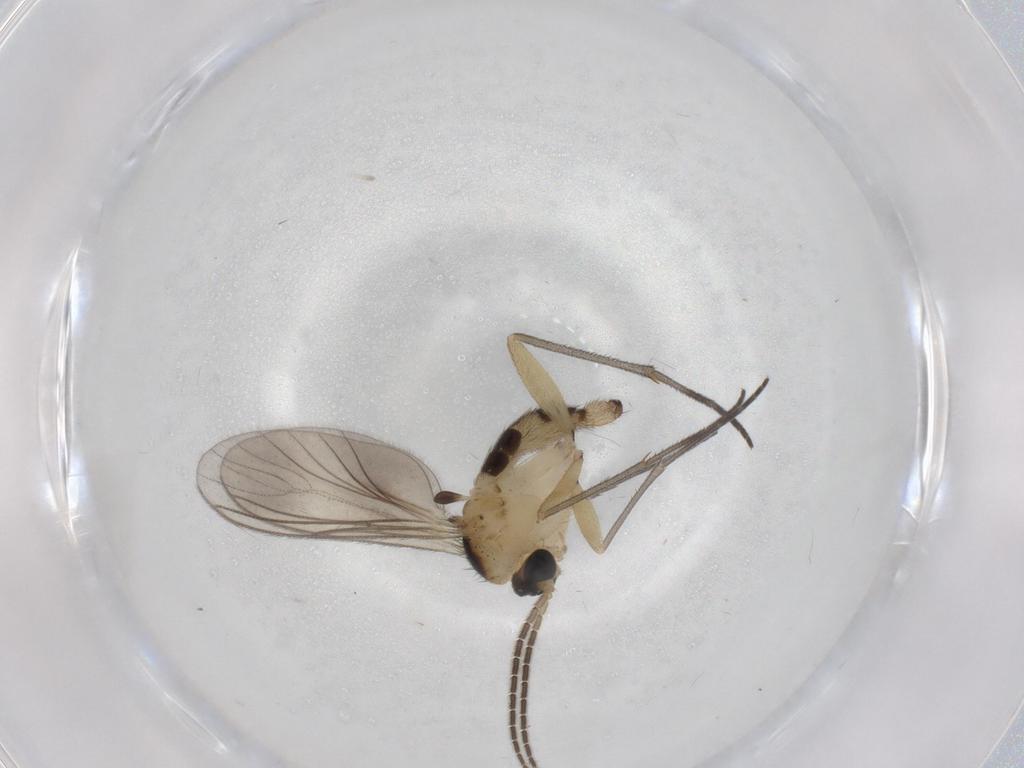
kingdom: Animalia
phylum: Arthropoda
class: Insecta
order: Diptera
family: Sciaridae
